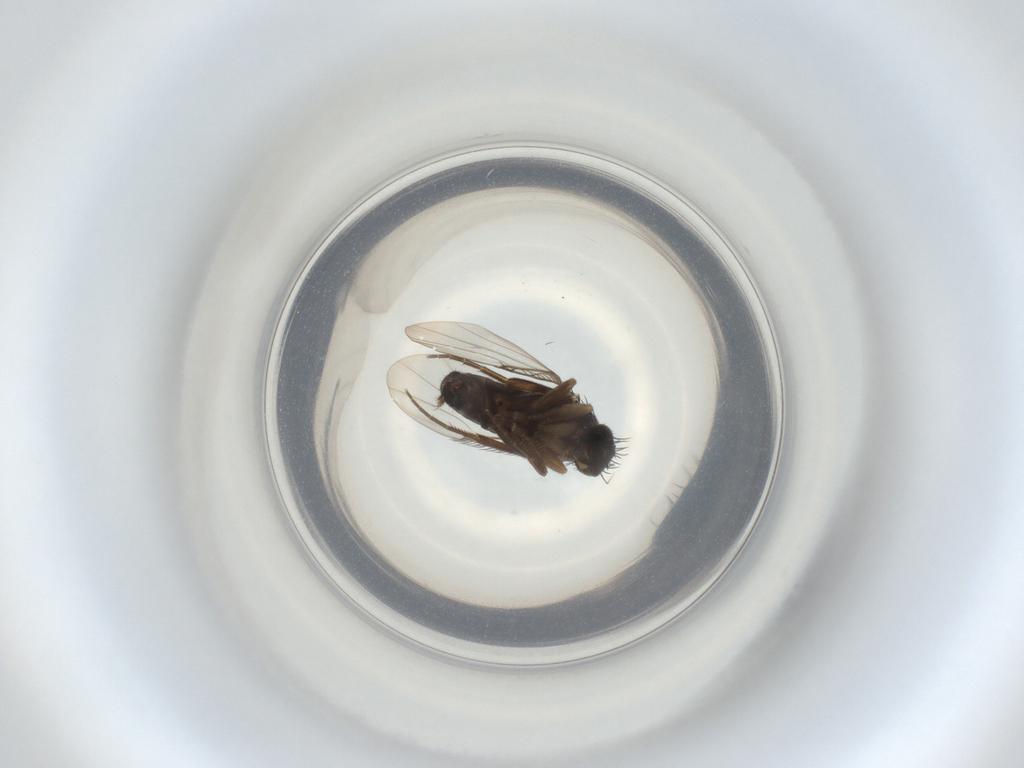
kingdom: Animalia
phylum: Arthropoda
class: Insecta
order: Diptera
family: Phoridae
